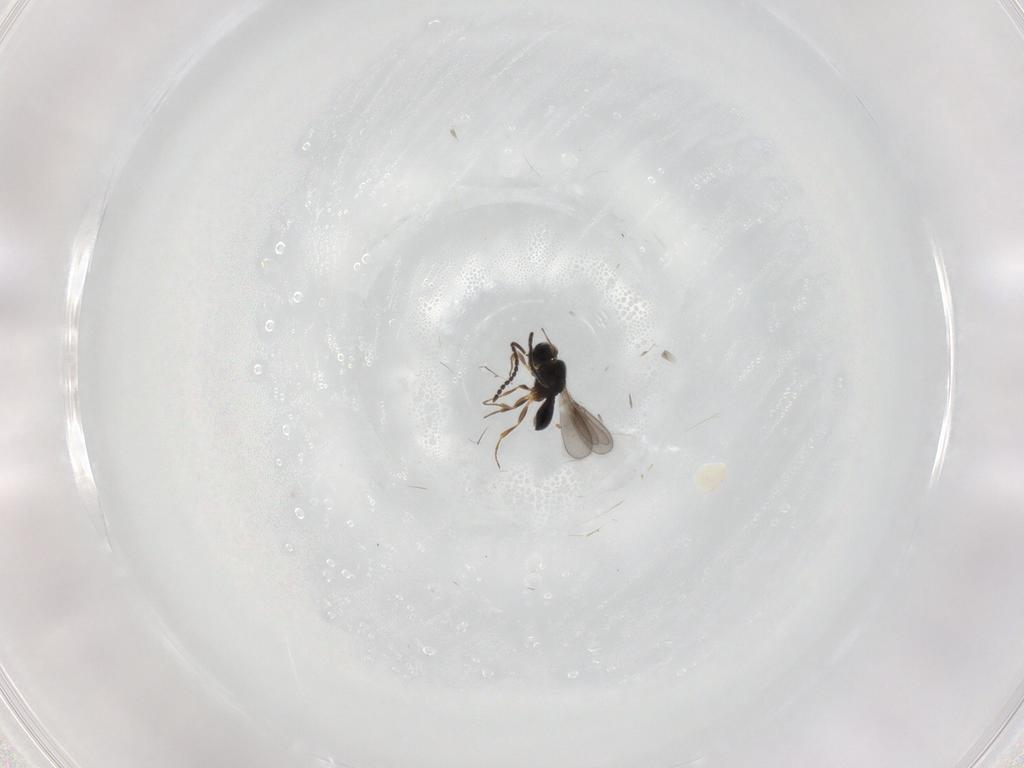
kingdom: Animalia
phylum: Arthropoda
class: Insecta
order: Hymenoptera
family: Scelionidae
